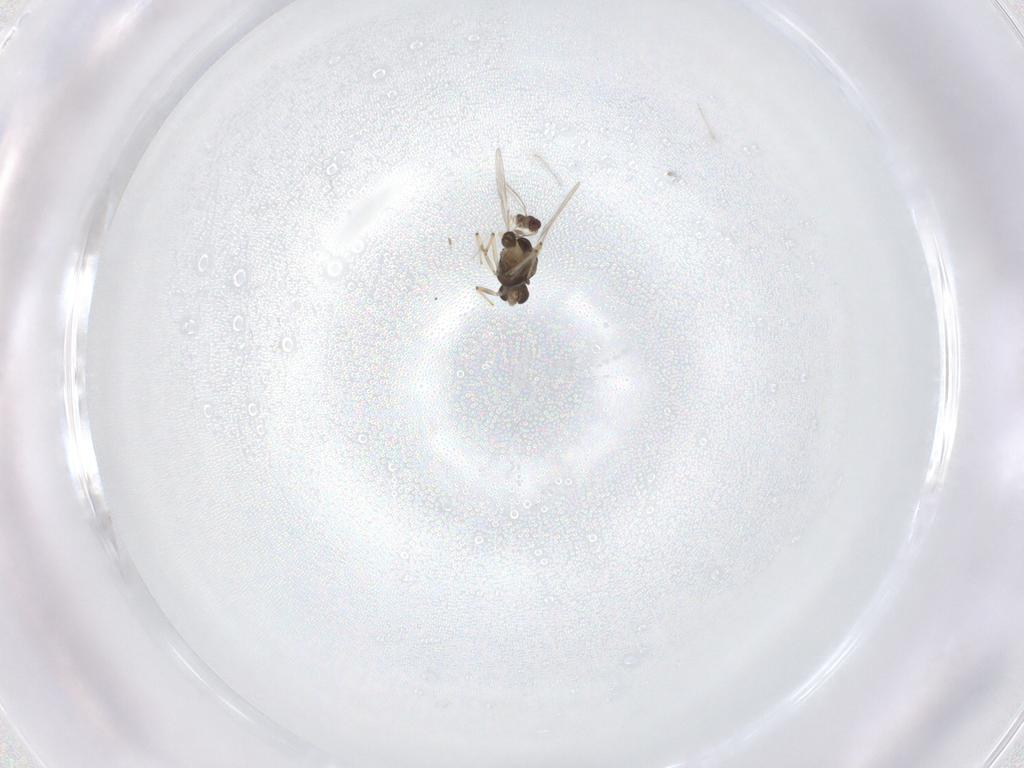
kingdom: Animalia
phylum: Arthropoda
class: Insecta
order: Diptera
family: Chironomidae
